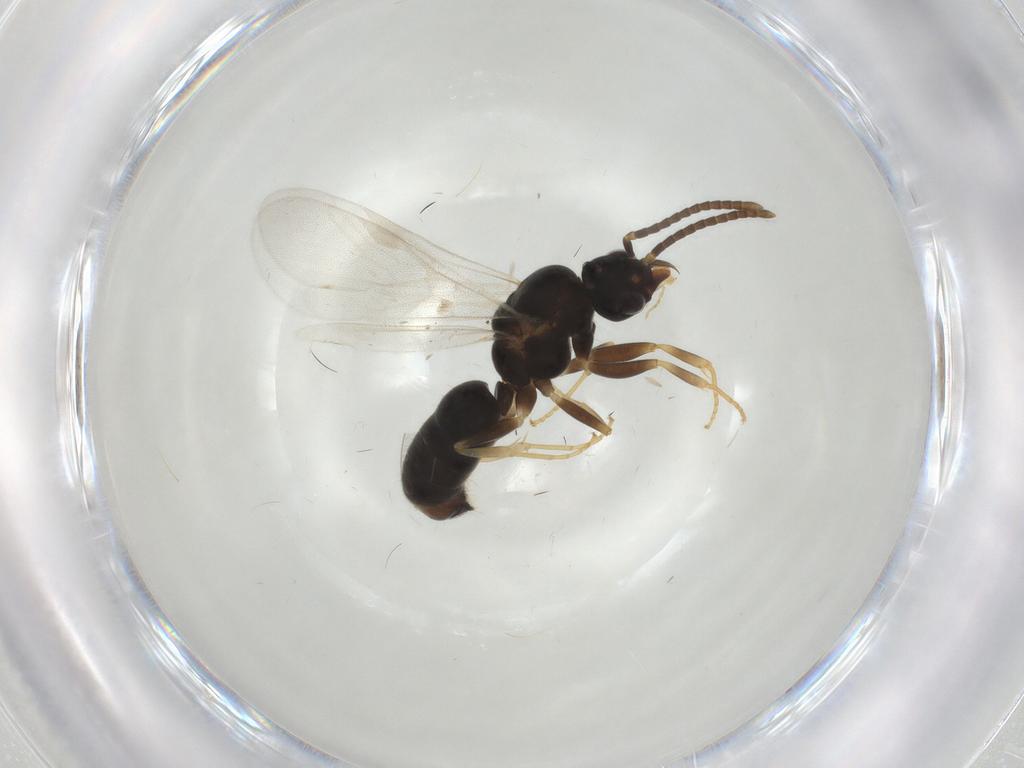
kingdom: Animalia
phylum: Arthropoda
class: Insecta
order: Hymenoptera
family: Formicidae
